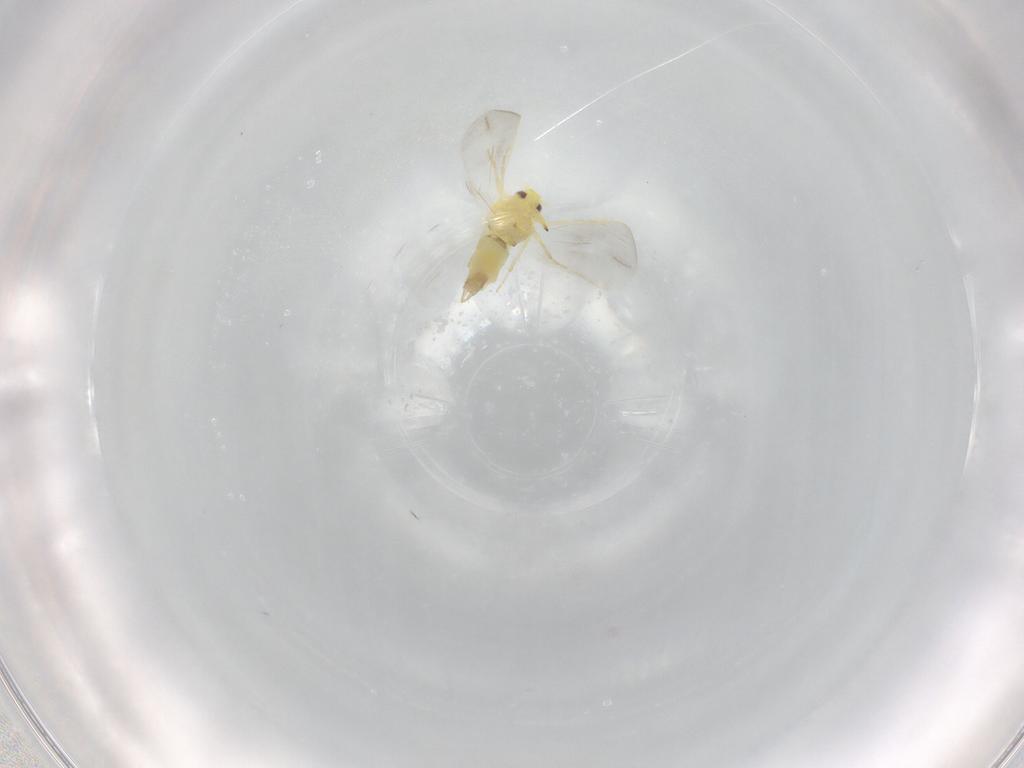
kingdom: Animalia
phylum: Arthropoda
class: Insecta
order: Hemiptera
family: Aleyrodidae
